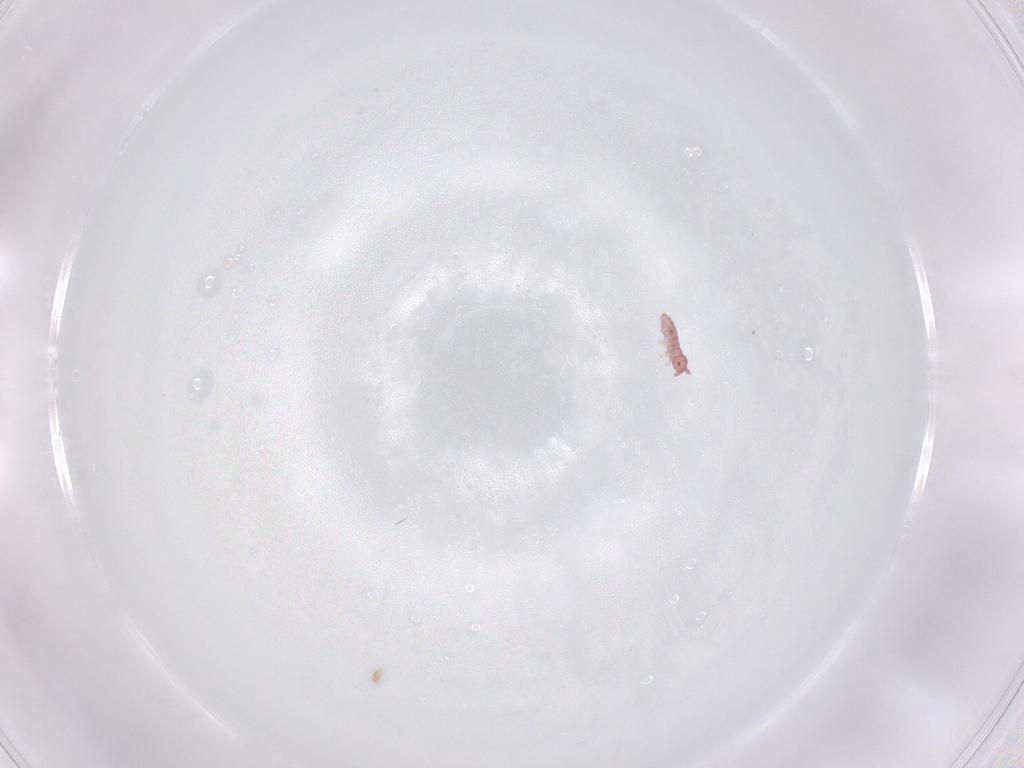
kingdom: Animalia
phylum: Arthropoda
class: Collembola
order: Poduromorpha
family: Hypogastruridae
